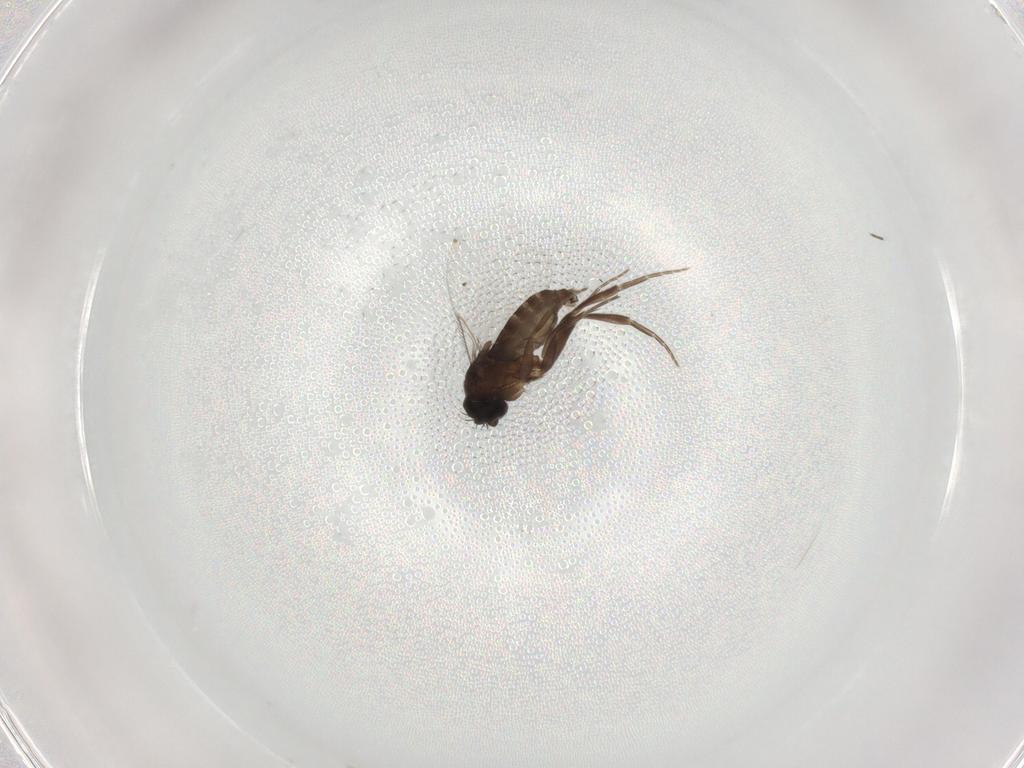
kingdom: Animalia
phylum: Arthropoda
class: Insecta
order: Diptera
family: Phoridae
